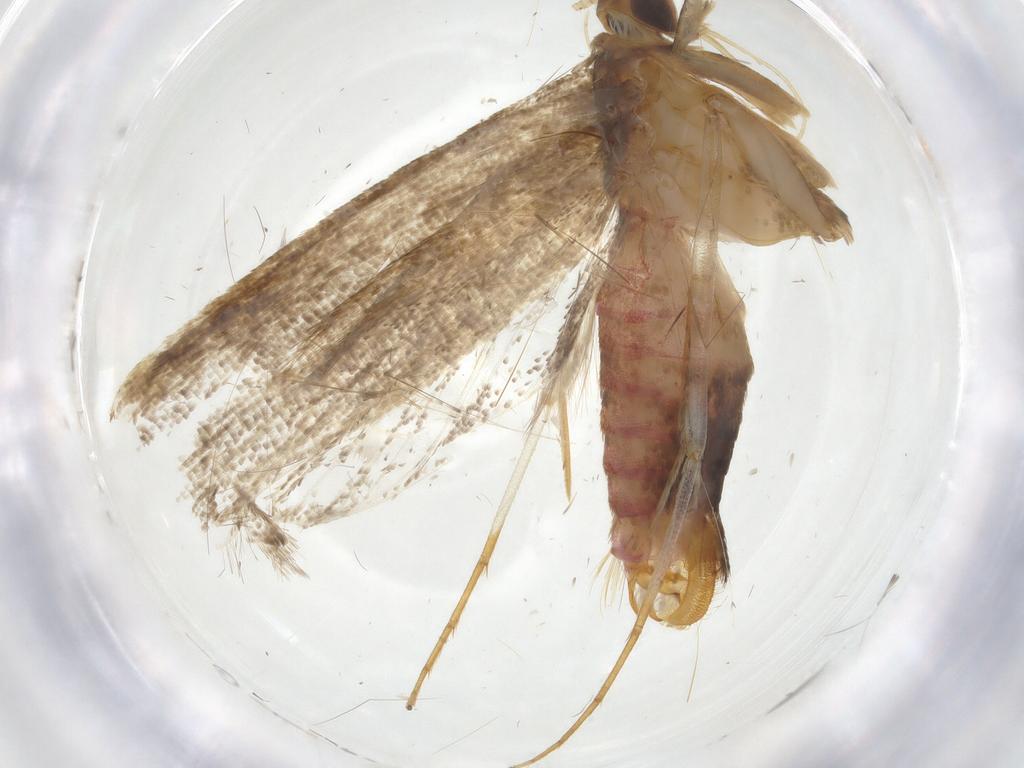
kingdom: Animalia
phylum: Arthropoda
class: Insecta
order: Lepidoptera
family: Lecithoceridae
